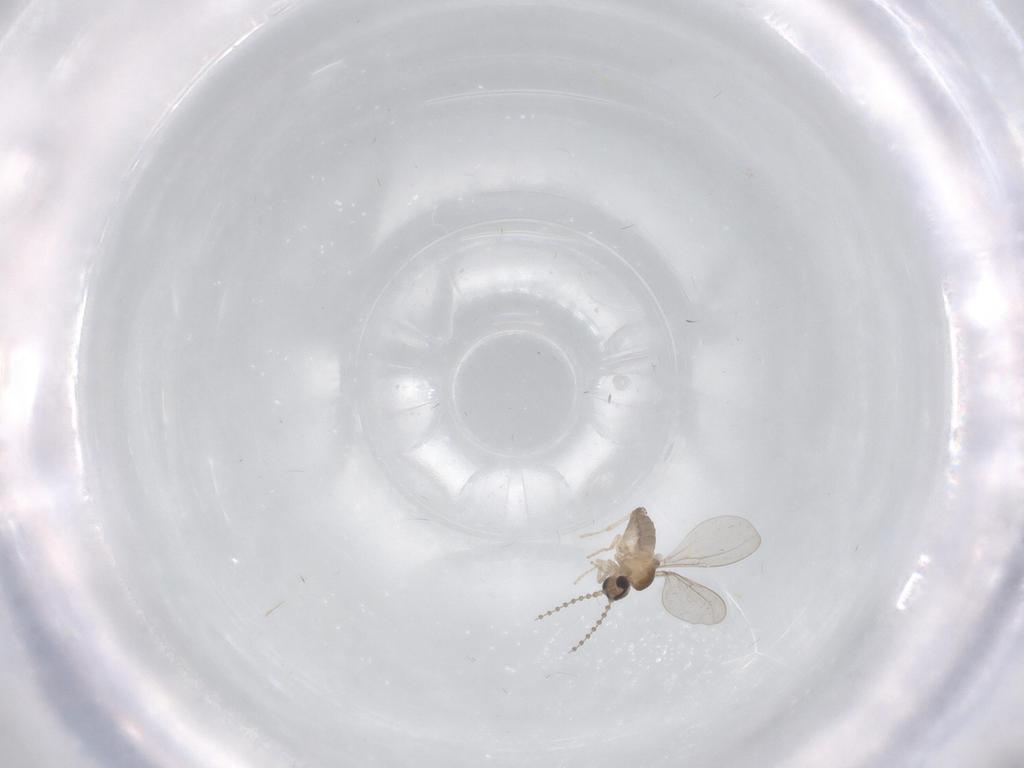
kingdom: Animalia
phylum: Arthropoda
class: Insecta
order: Diptera
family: Cecidomyiidae
